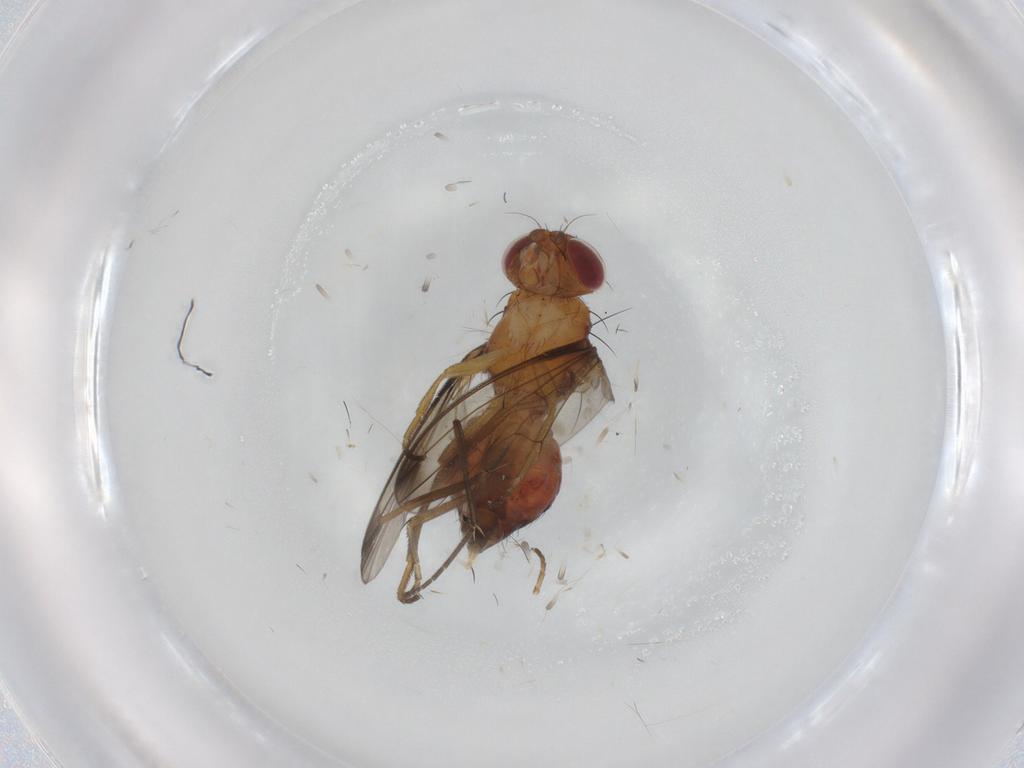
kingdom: Animalia
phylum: Arthropoda
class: Insecta
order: Diptera
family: Piophilidae
